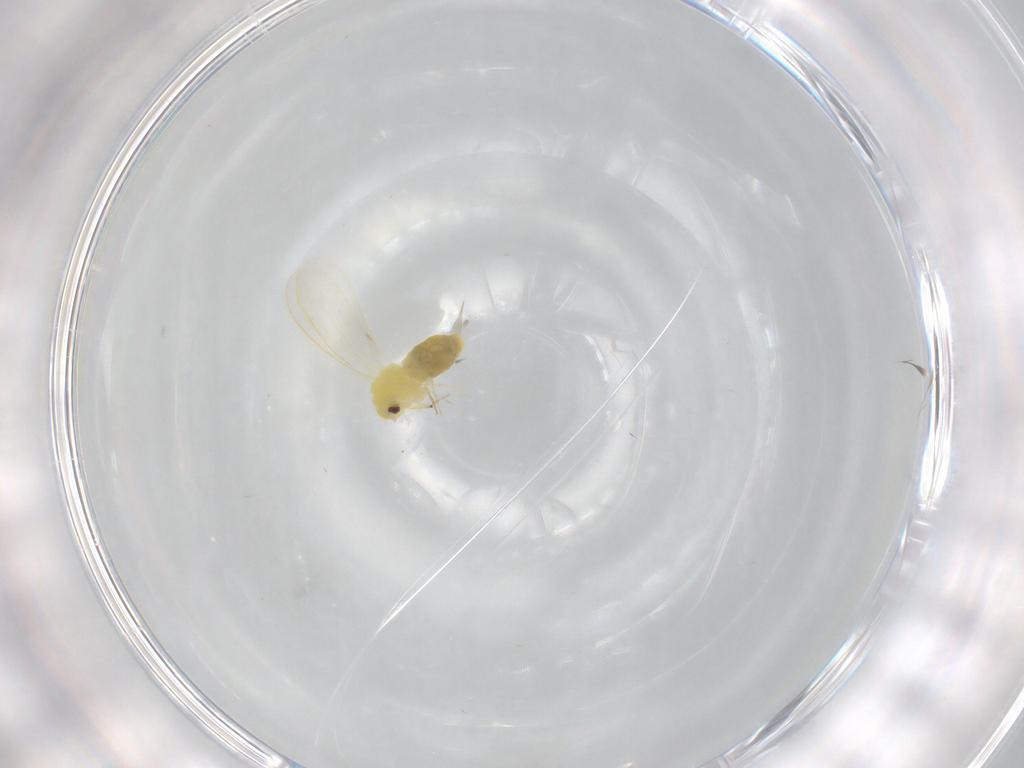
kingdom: Animalia
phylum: Arthropoda
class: Insecta
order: Hemiptera
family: Aleyrodidae
